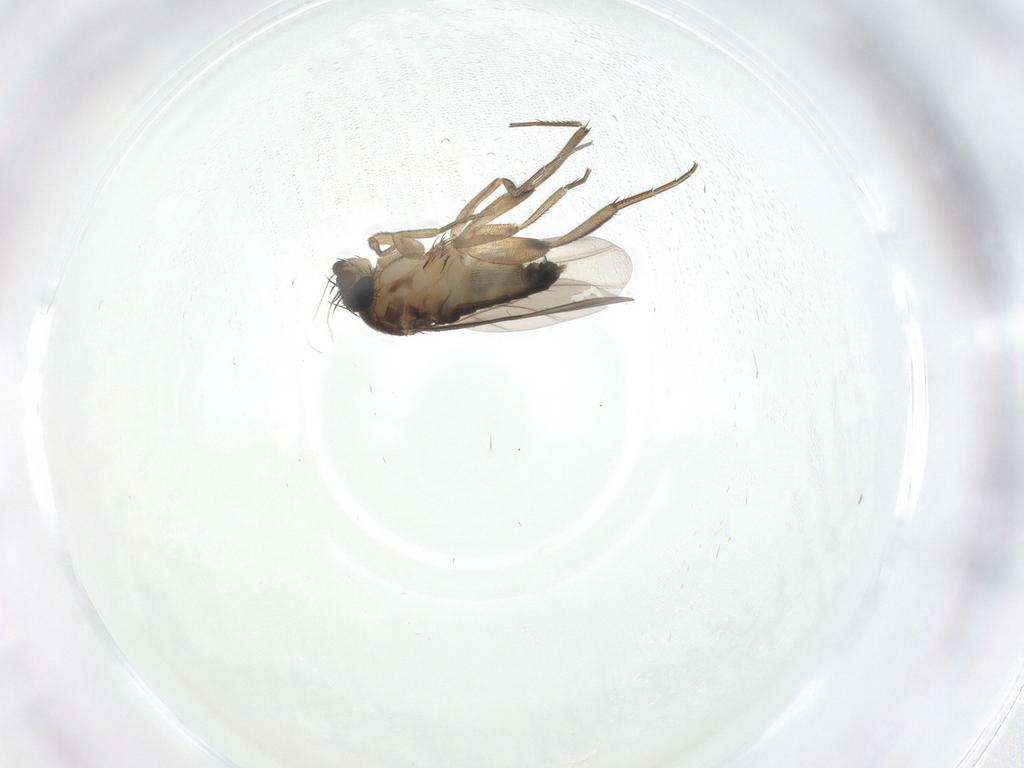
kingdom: Animalia
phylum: Arthropoda
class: Insecta
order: Diptera
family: Phoridae
